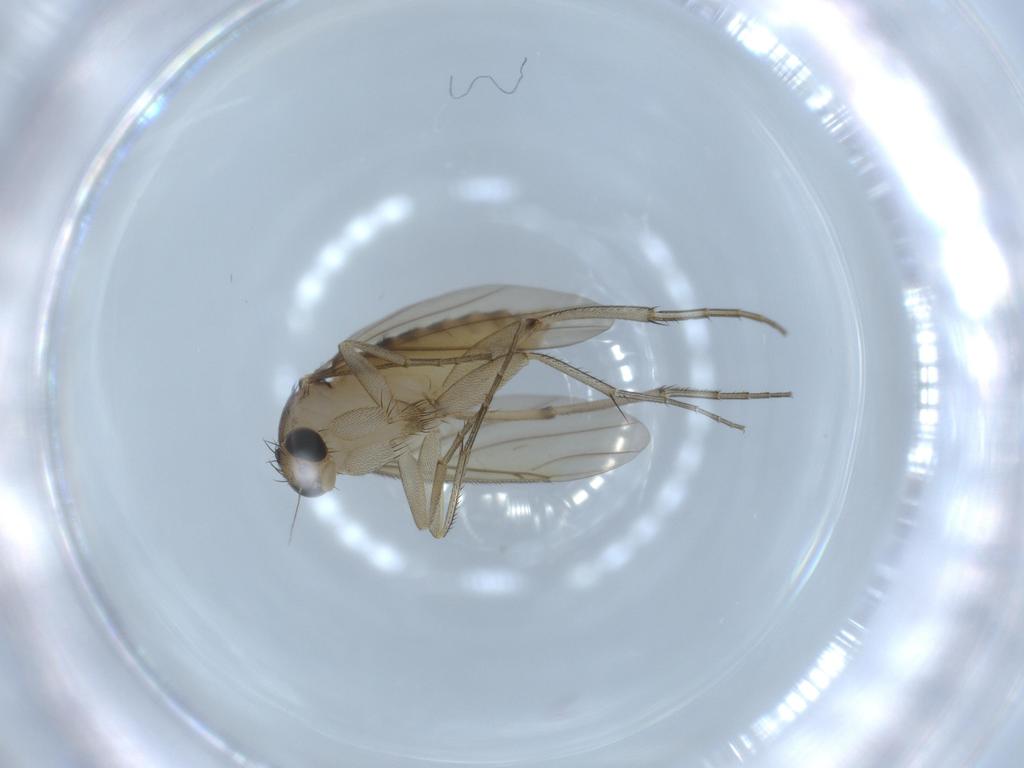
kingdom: Animalia
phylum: Arthropoda
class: Insecta
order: Diptera
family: Phoridae
